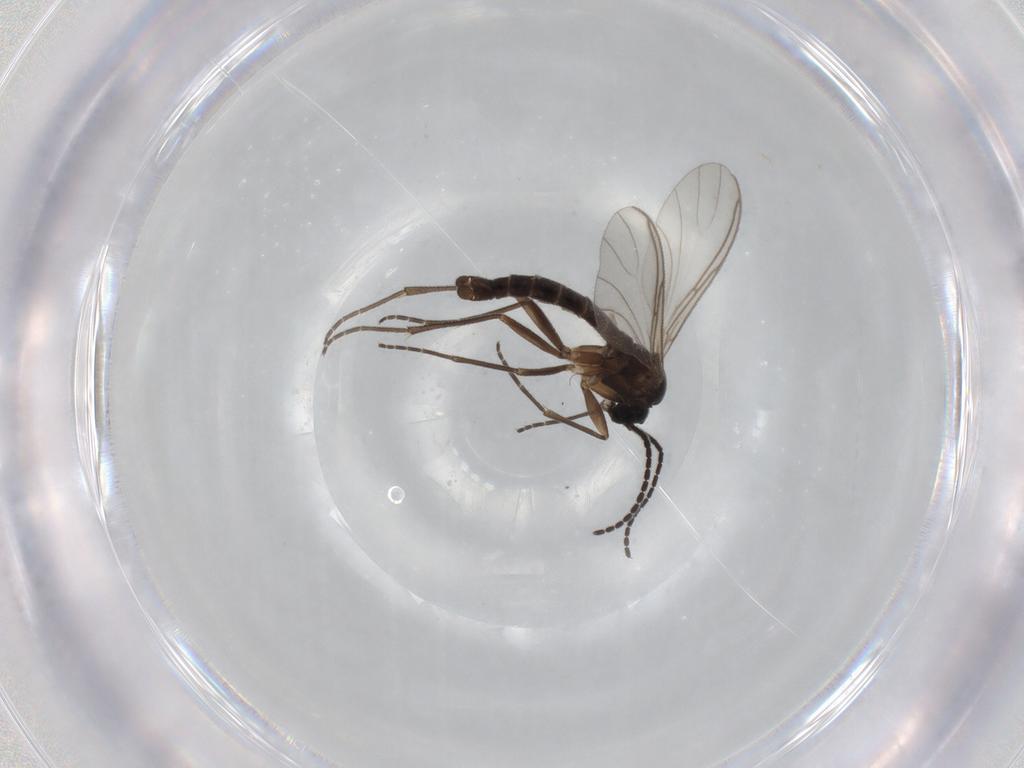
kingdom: Animalia
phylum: Arthropoda
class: Insecta
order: Diptera
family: Sciaridae
